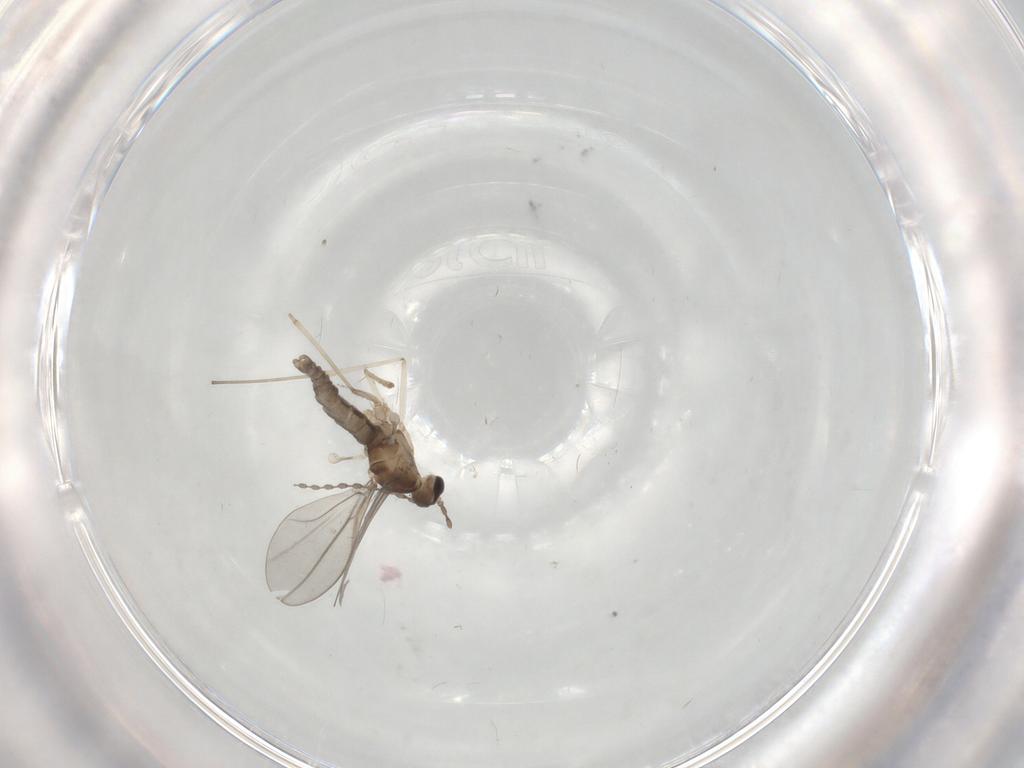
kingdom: Animalia
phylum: Arthropoda
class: Insecta
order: Diptera
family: Cecidomyiidae
